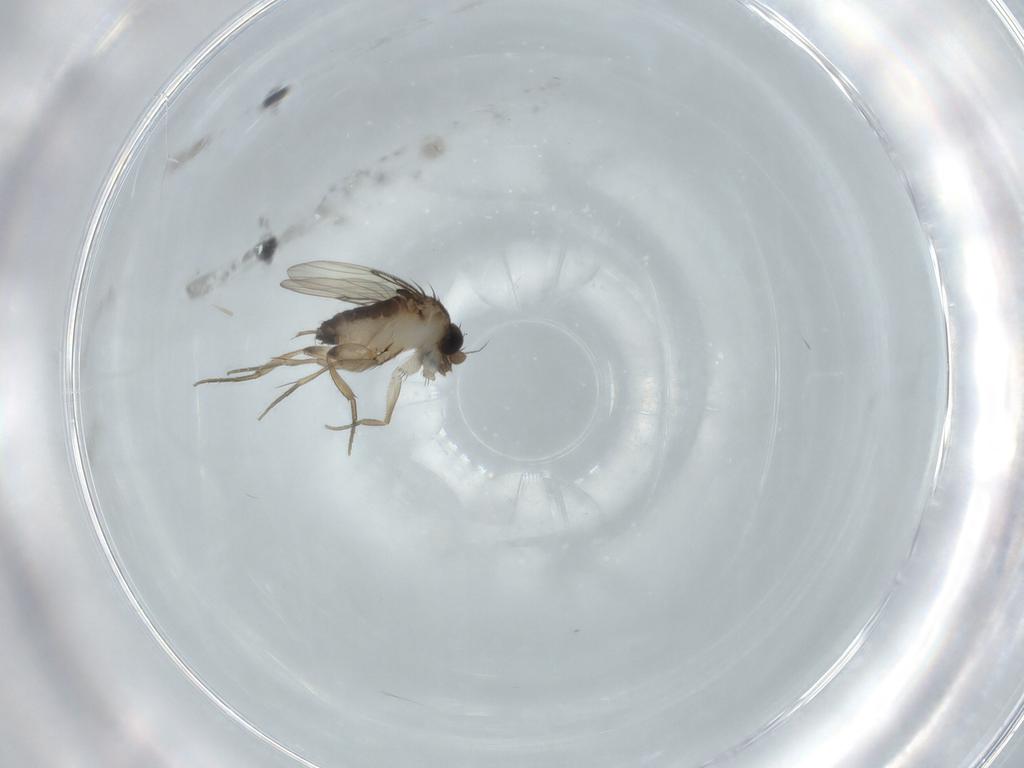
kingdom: Animalia
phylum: Arthropoda
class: Insecta
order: Diptera
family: Phoridae
